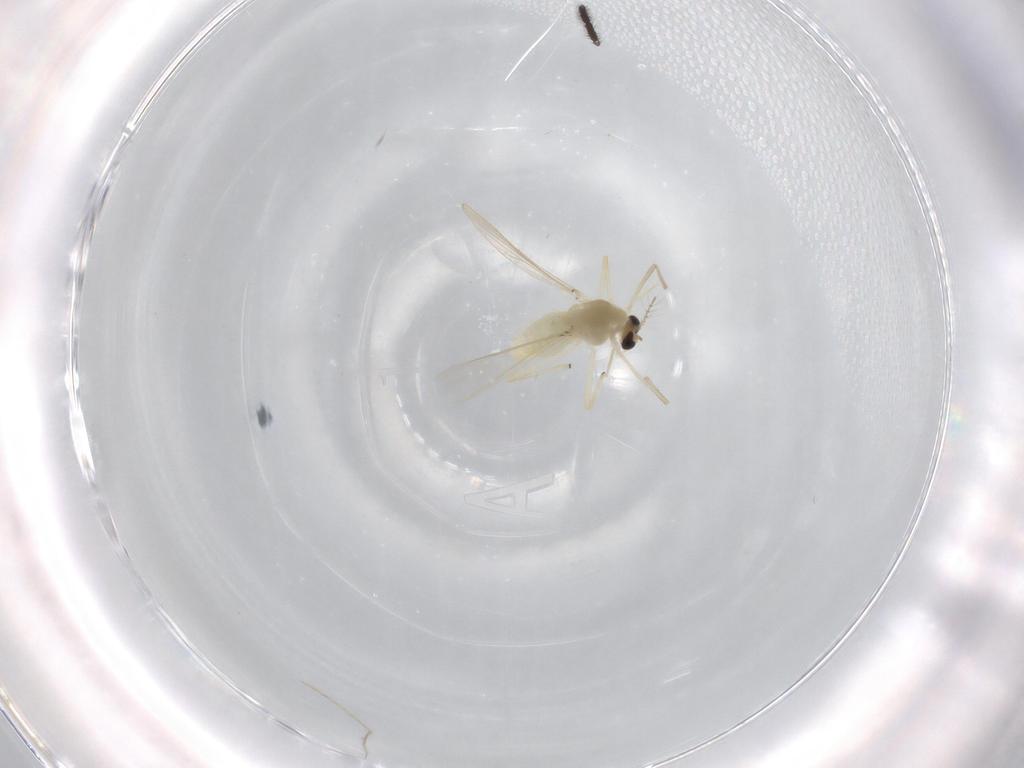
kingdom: Animalia
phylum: Arthropoda
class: Insecta
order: Diptera
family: Chironomidae
